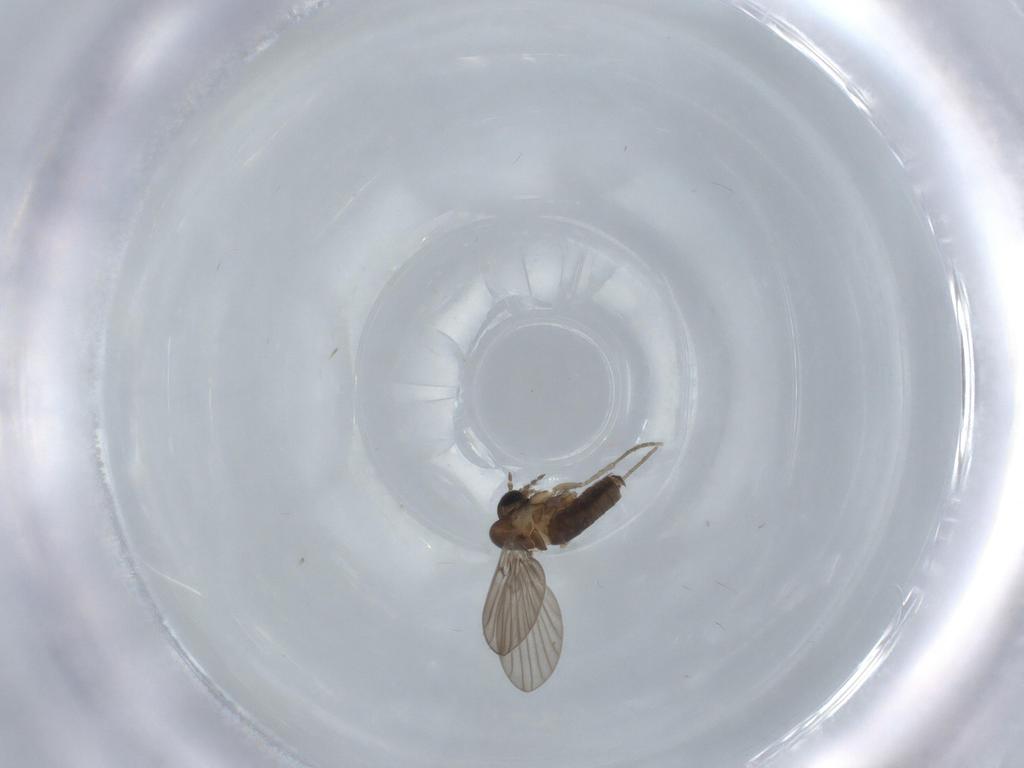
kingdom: Animalia
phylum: Arthropoda
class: Insecta
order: Diptera
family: Psychodidae
